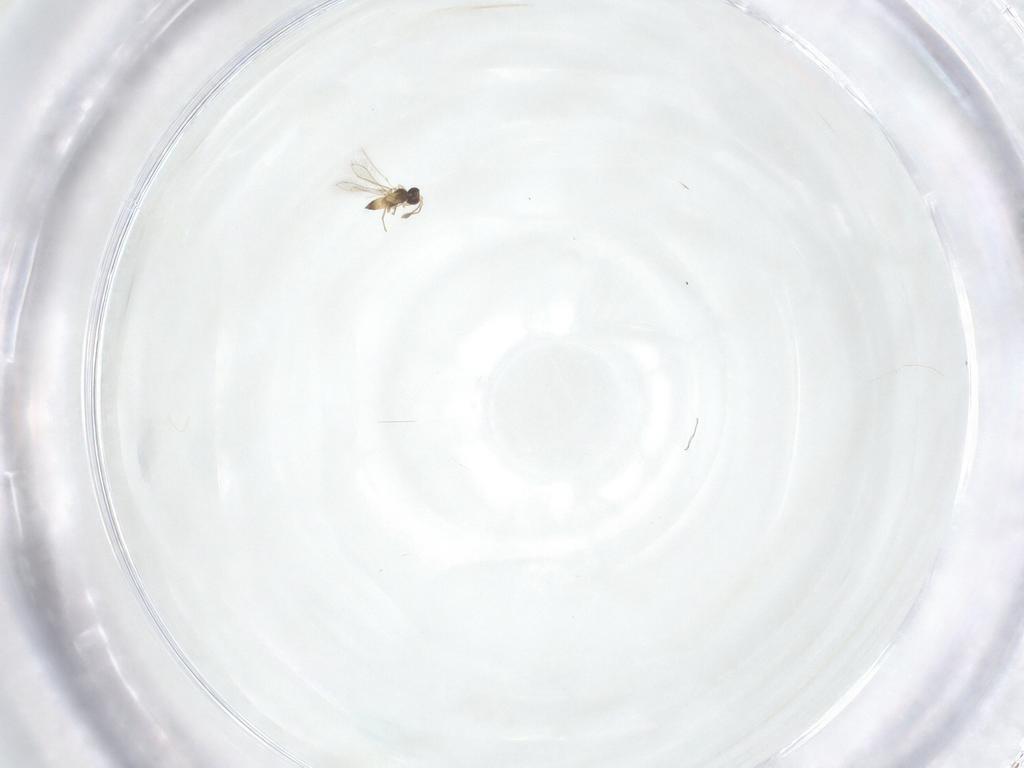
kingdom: Animalia
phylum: Arthropoda
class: Insecta
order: Hymenoptera
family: Mymaridae
